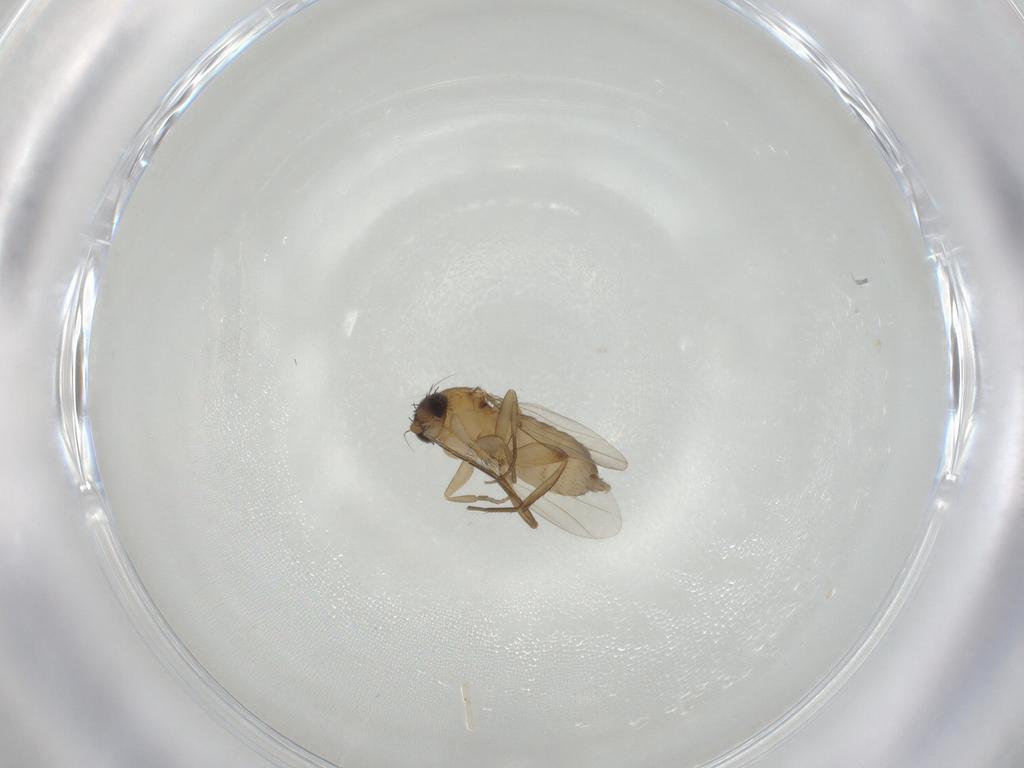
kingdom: Animalia
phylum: Arthropoda
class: Insecta
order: Diptera
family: Phoridae
